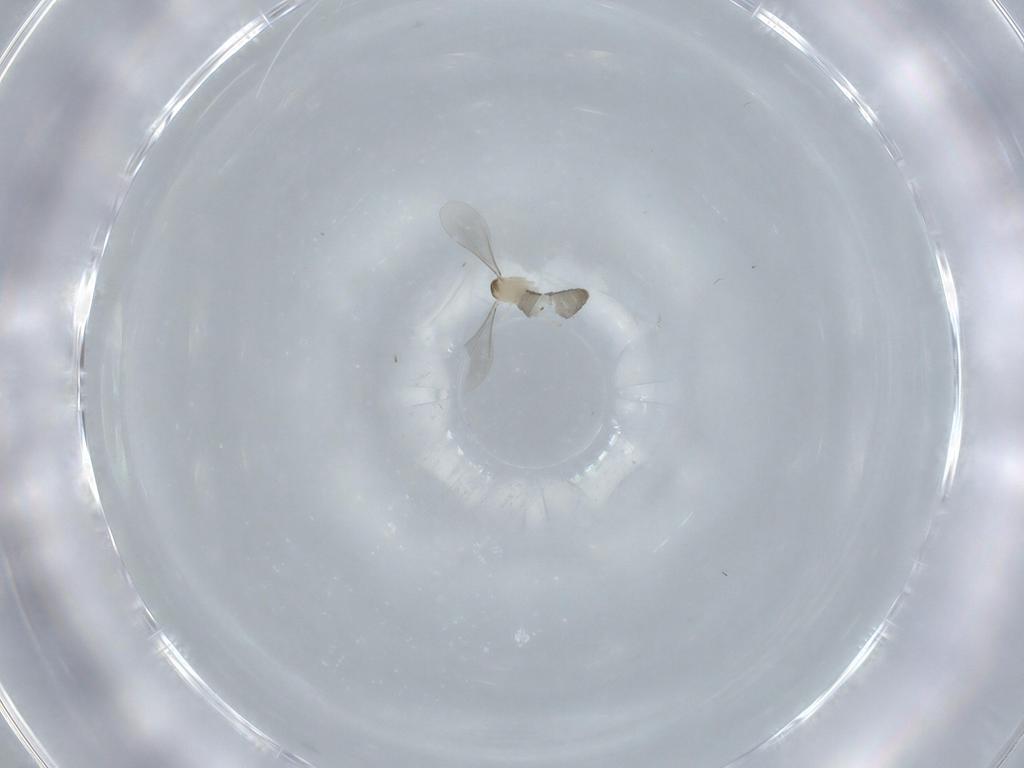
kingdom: Animalia
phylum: Arthropoda
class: Insecta
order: Diptera
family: Cecidomyiidae
